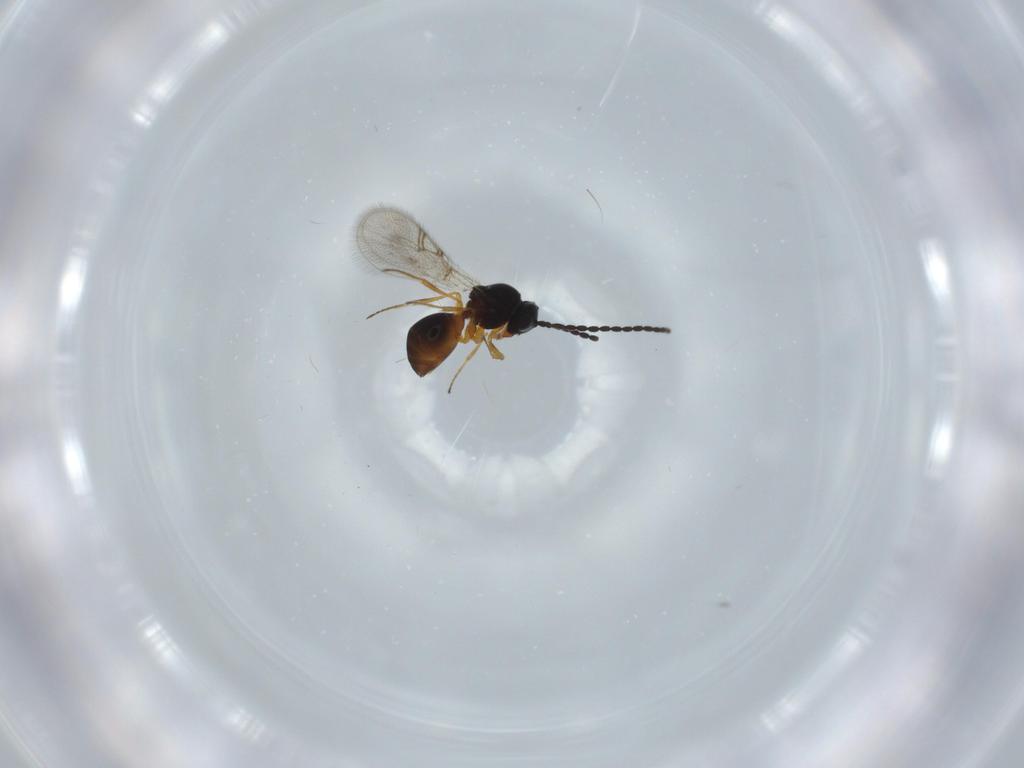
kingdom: Animalia
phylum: Arthropoda
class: Insecta
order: Hymenoptera
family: Figitidae
